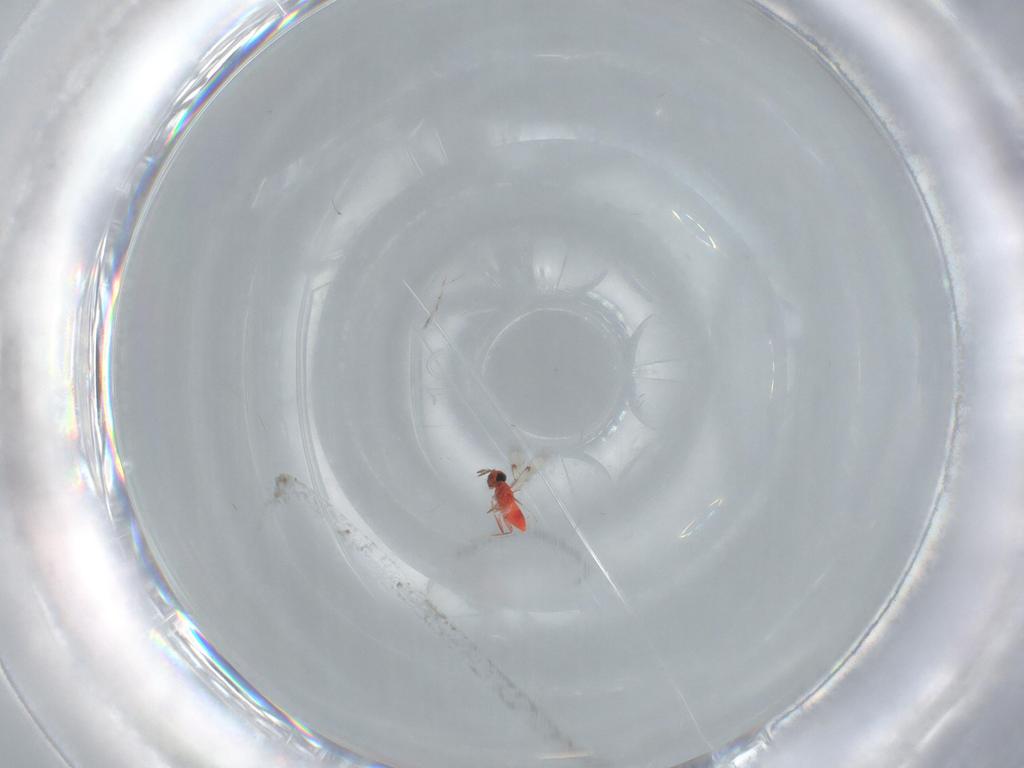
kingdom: Animalia
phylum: Arthropoda
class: Insecta
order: Hymenoptera
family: Trichogrammatidae
